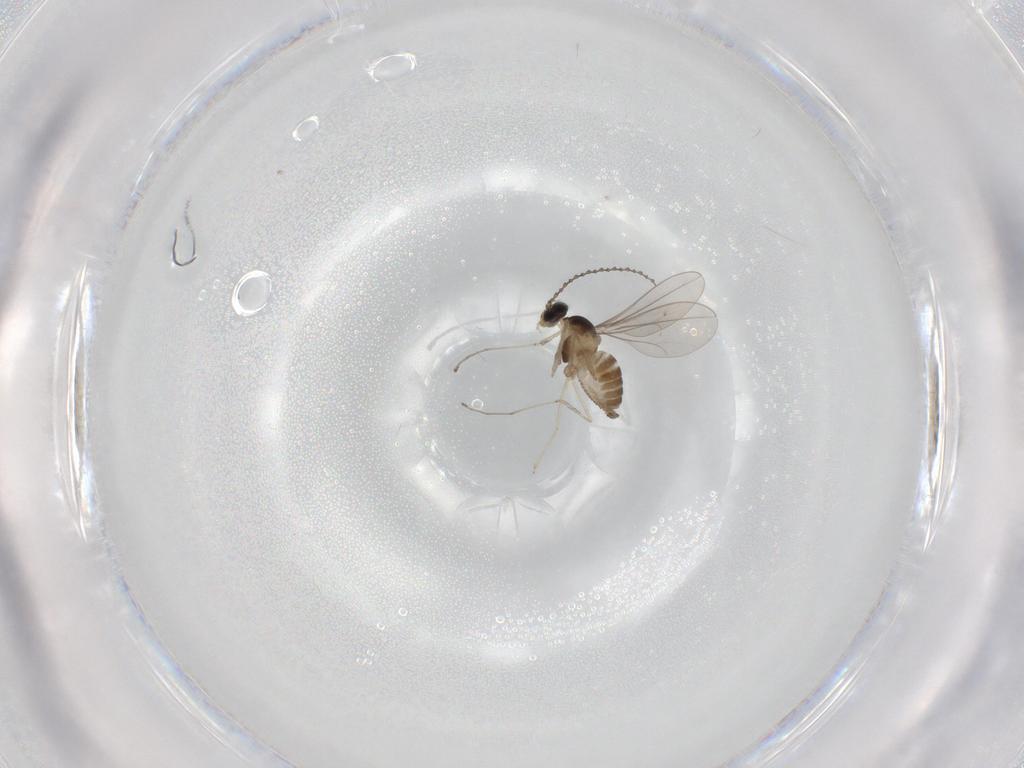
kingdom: Animalia
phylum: Arthropoda
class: Insecta
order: Diptera
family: Cecidomyiidae
